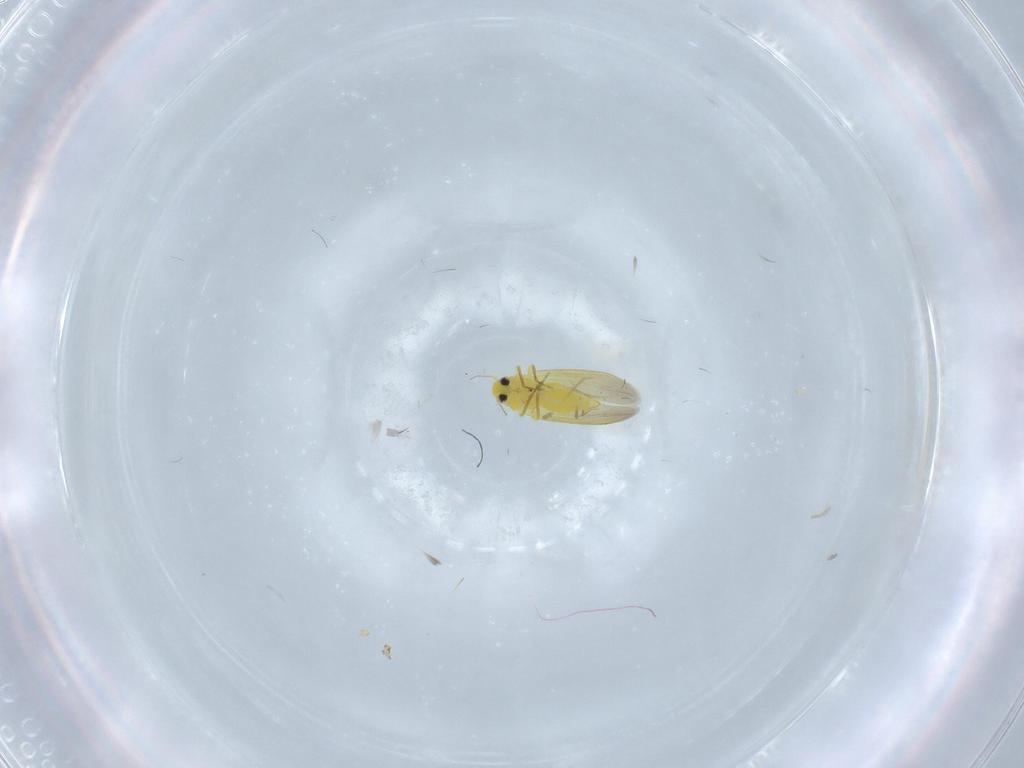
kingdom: Animalia
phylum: Arthropoda
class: Insecta
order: Hemiptera
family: Aleyrodidae
